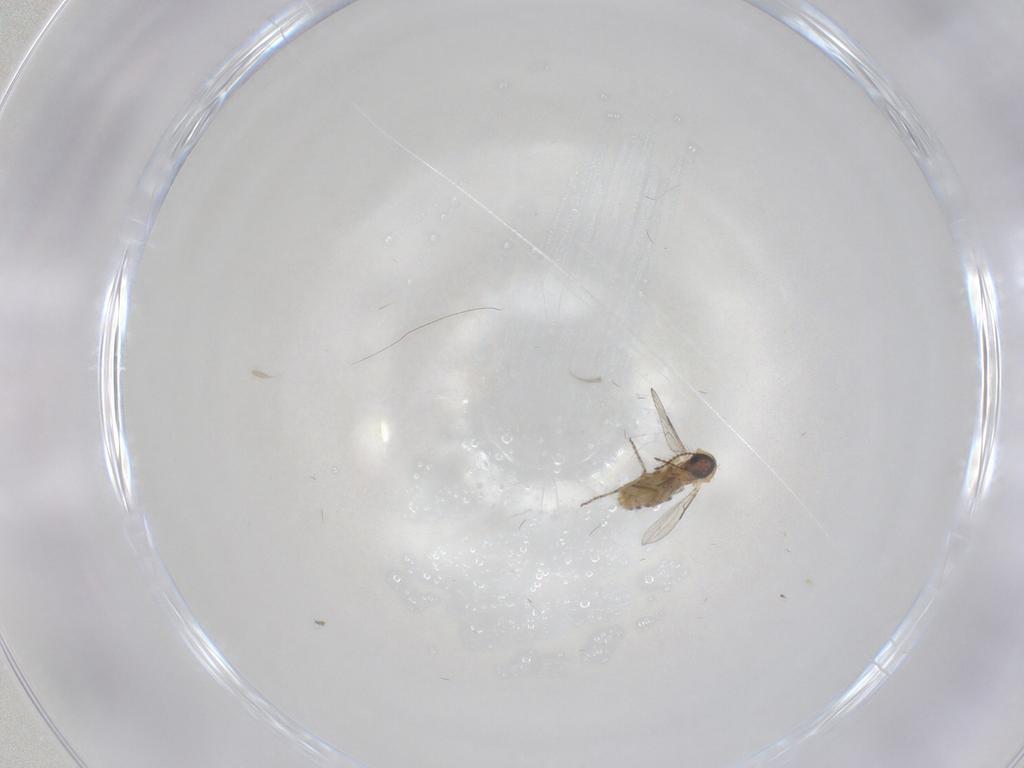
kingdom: Animalia
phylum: Arthropoda
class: Insecta
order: Diptera
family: Ceratopogonidae
